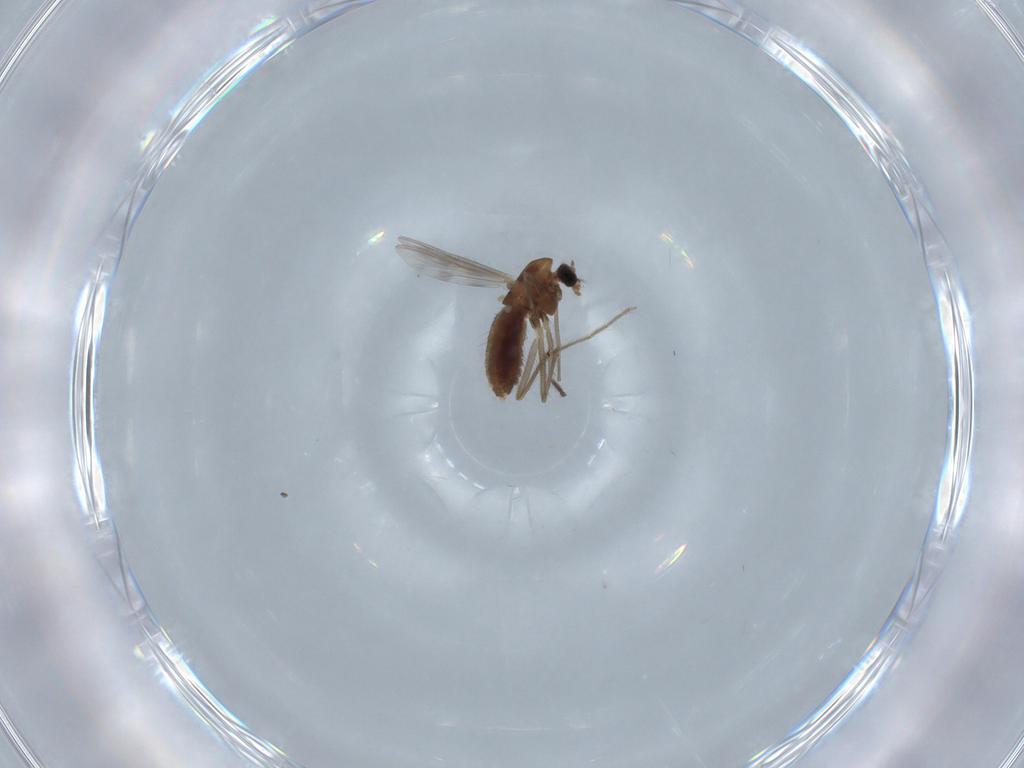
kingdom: Animalia
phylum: Arthropoda
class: Insecta
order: Diptera
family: Chironomidae
